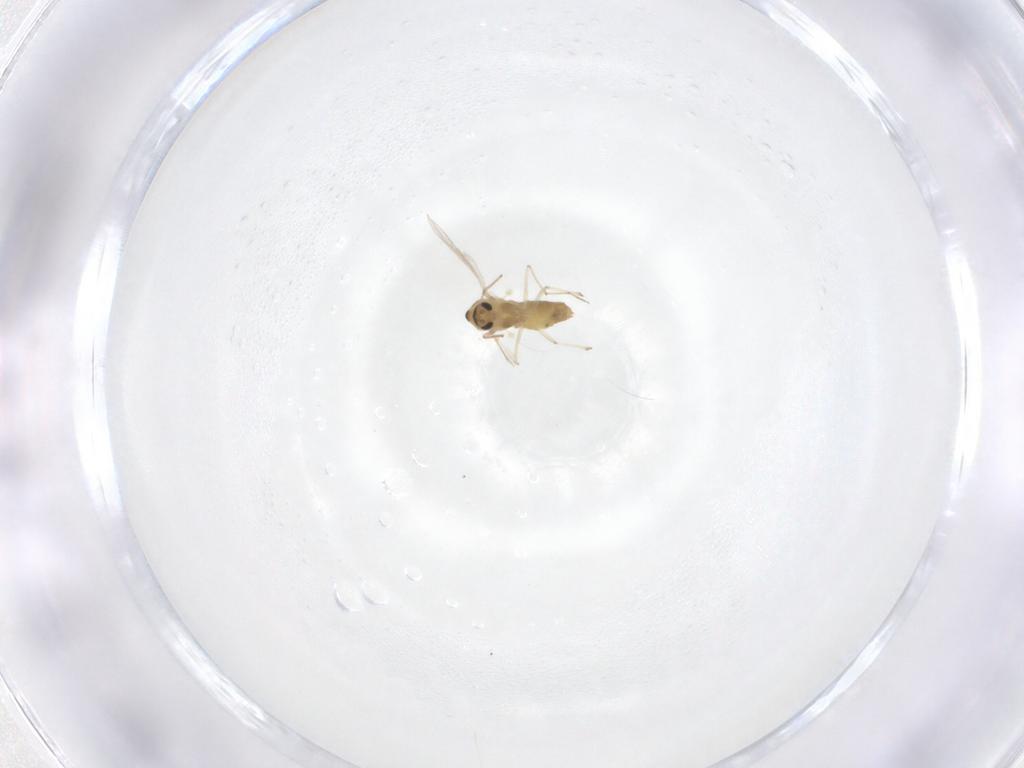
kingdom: Animalia
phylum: Arthropoda
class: Insecta
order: Diptera
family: Chironomidae
